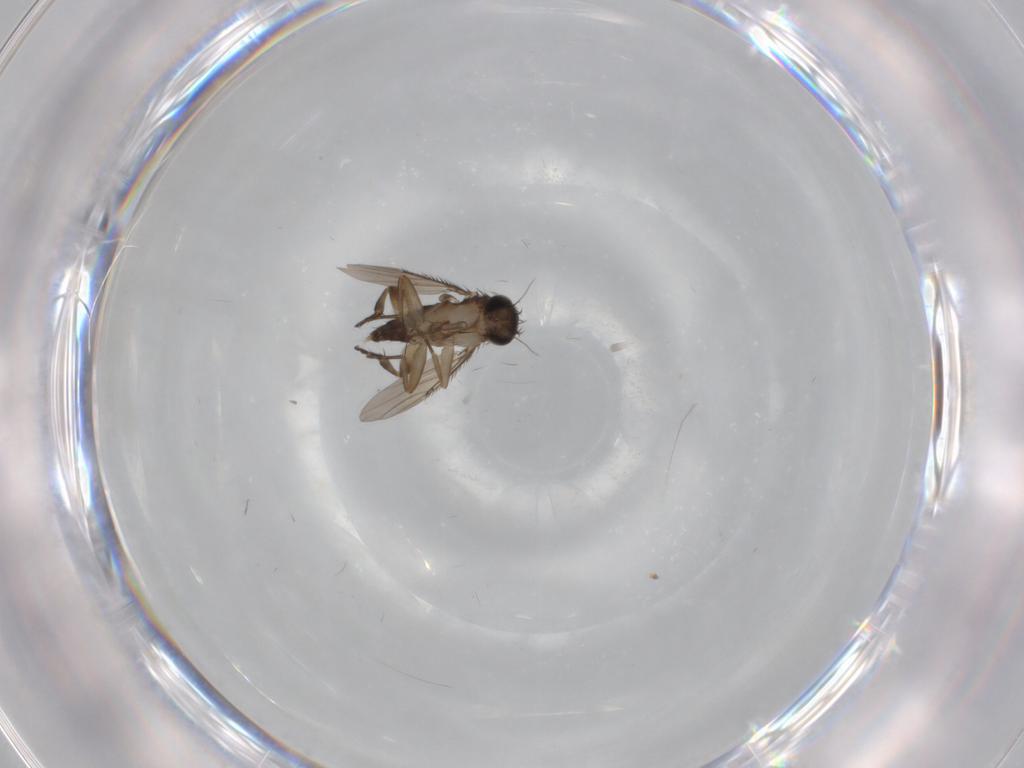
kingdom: Animalia
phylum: Arthropoda
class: Insecta
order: Diptera
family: Phoridae
